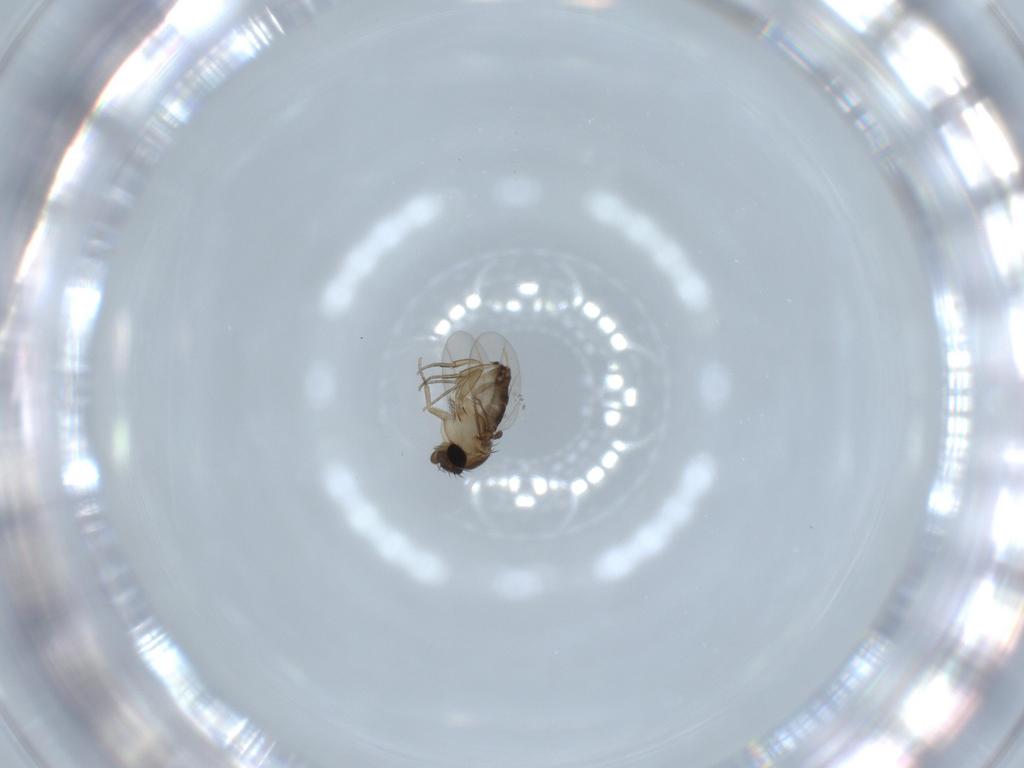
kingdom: Animalia
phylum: Arthropoda
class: Insecta
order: Diptera
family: Phoridae
